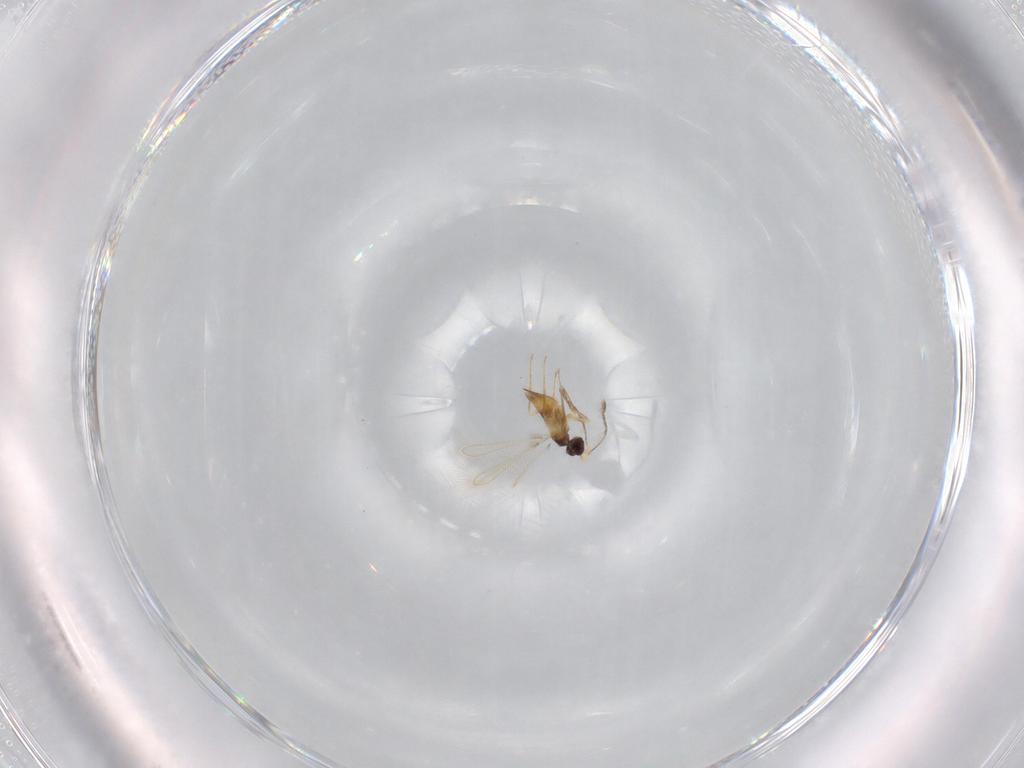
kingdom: Animalia
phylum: Arthropoda
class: Insecta
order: Hymenoptera
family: Mymaridae
